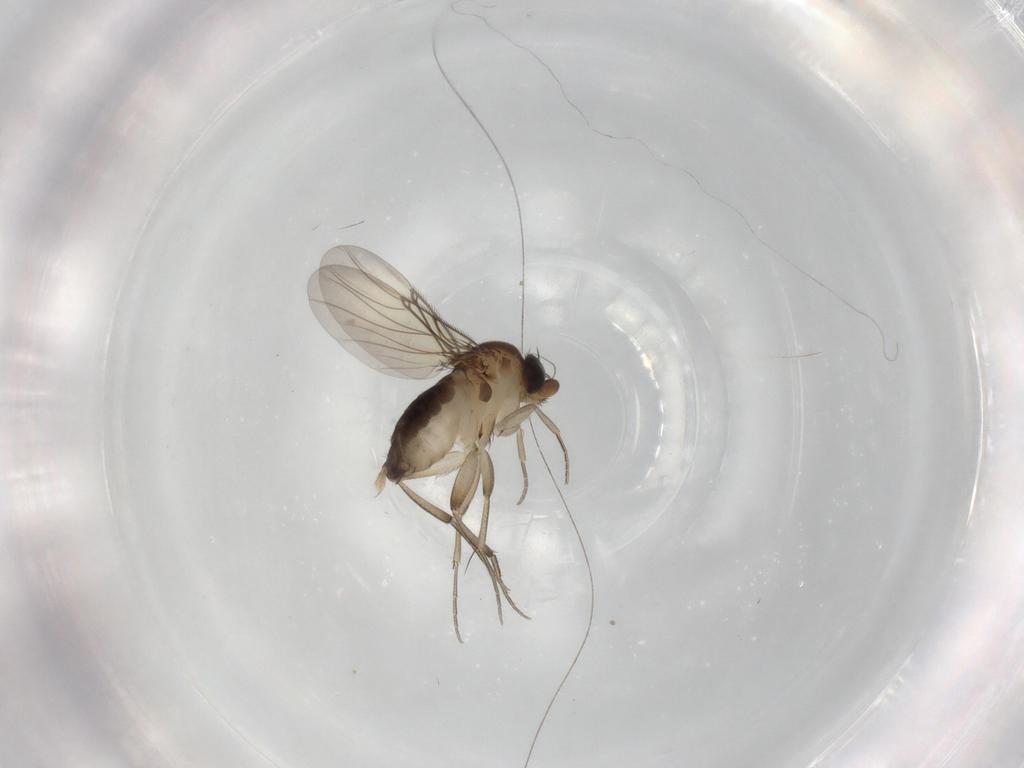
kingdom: Animalia
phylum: Arthropoda
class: Insecta
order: Diptera
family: Phoridae
